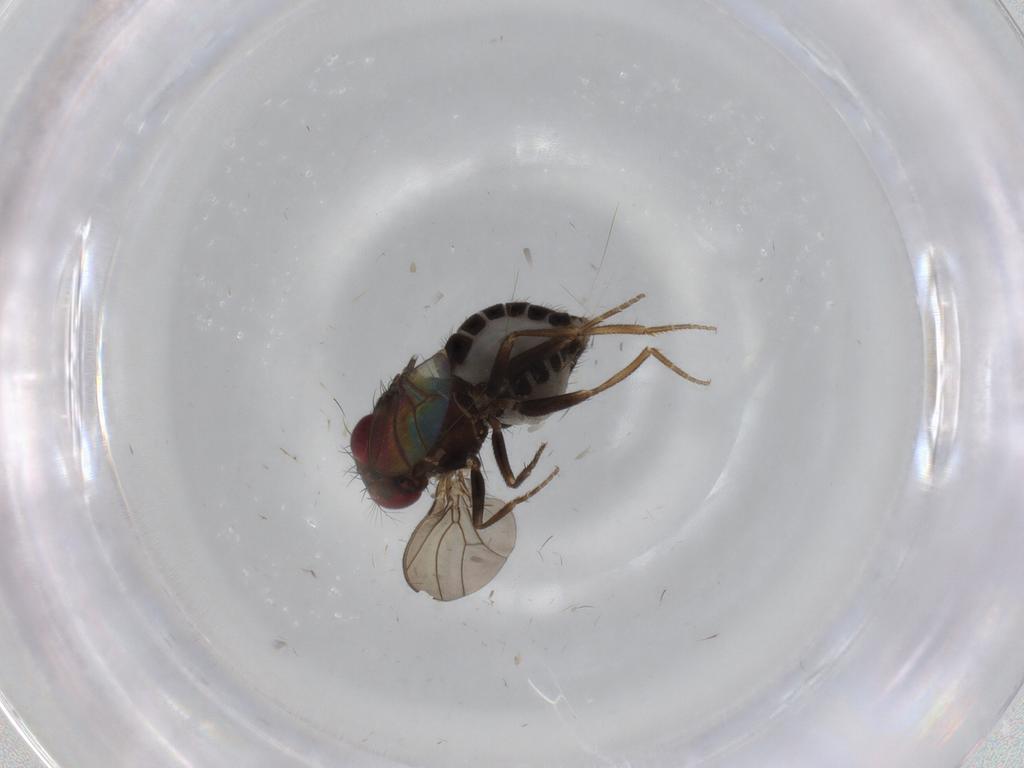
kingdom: Animalia
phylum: Arthropoda
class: Insecta
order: Diptera
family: Drosophilidae
